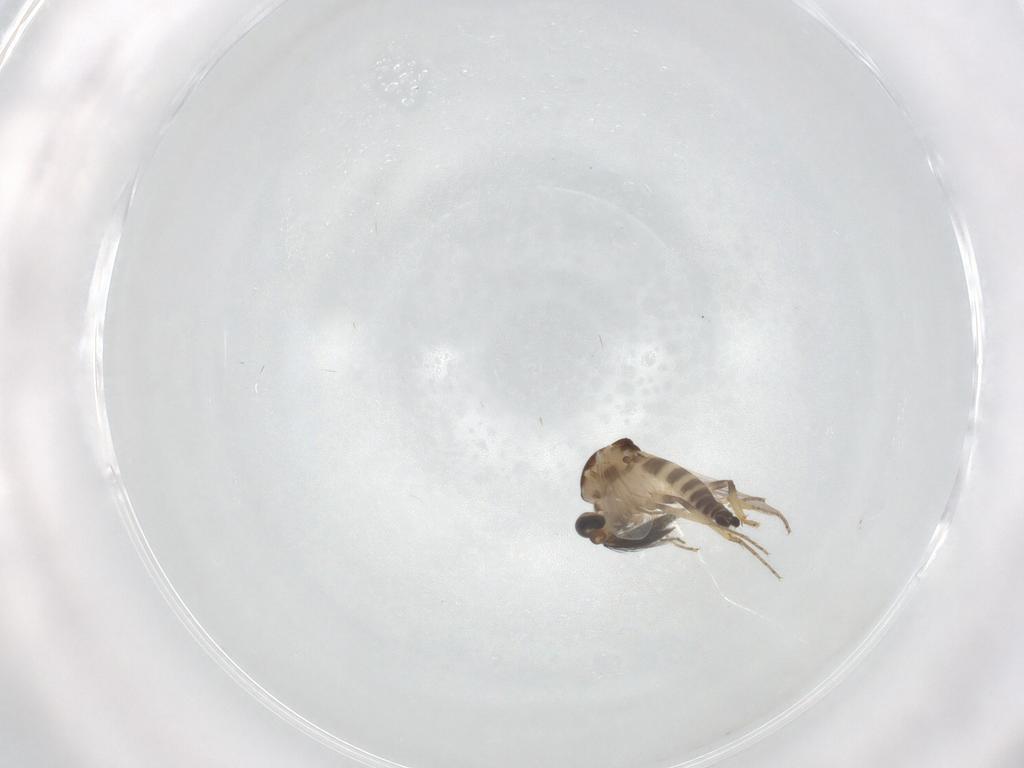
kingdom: Animalia
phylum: Arthropoda
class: Insecta
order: Diptera
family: Ceratopogonidae
